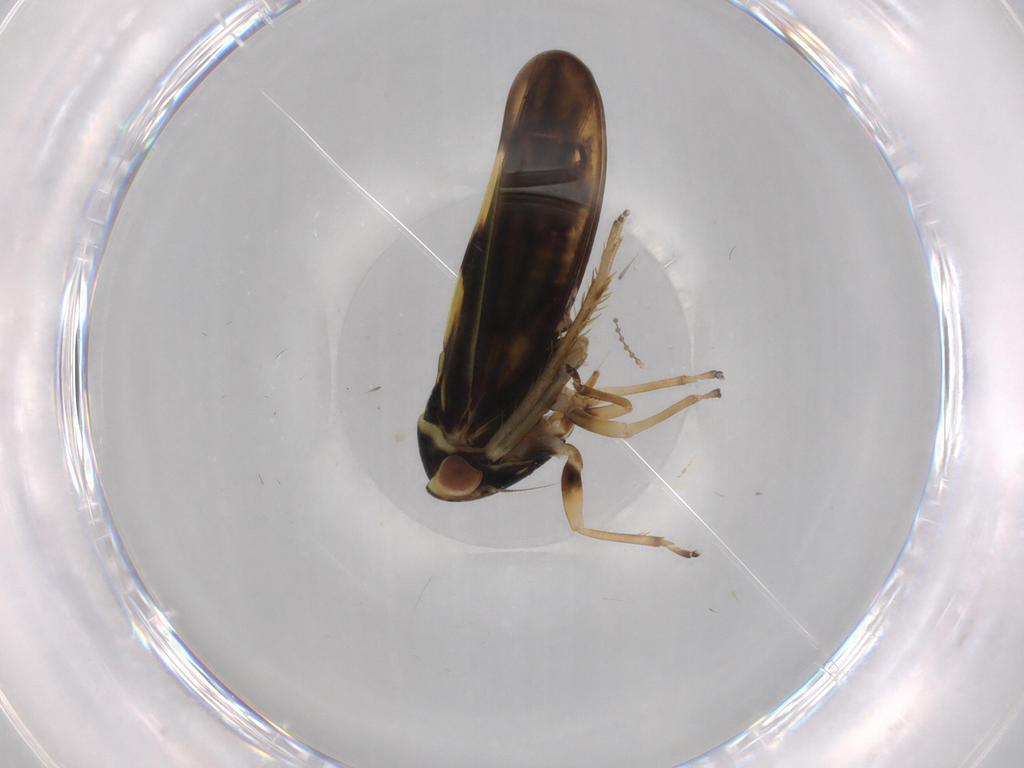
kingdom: Animalia
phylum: Arthropoda
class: Insecta
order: Hemiptera
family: Cicadellidae
